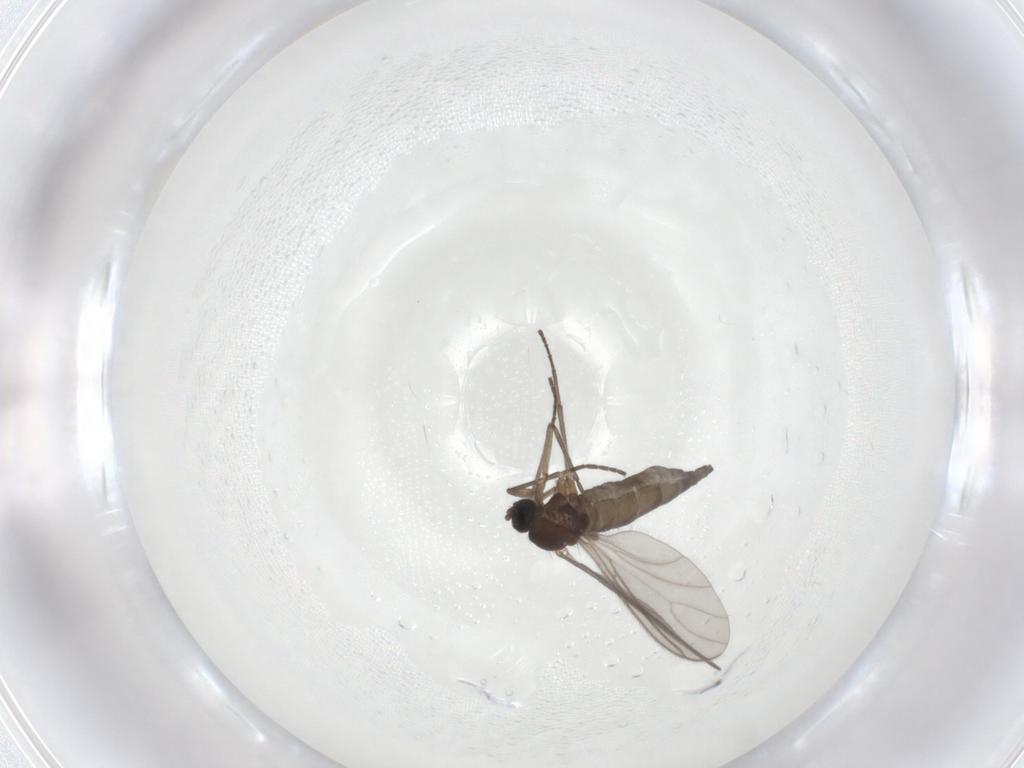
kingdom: Animalia
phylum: Arthropoda
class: Insecta
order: Diptera
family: Sciaridae
